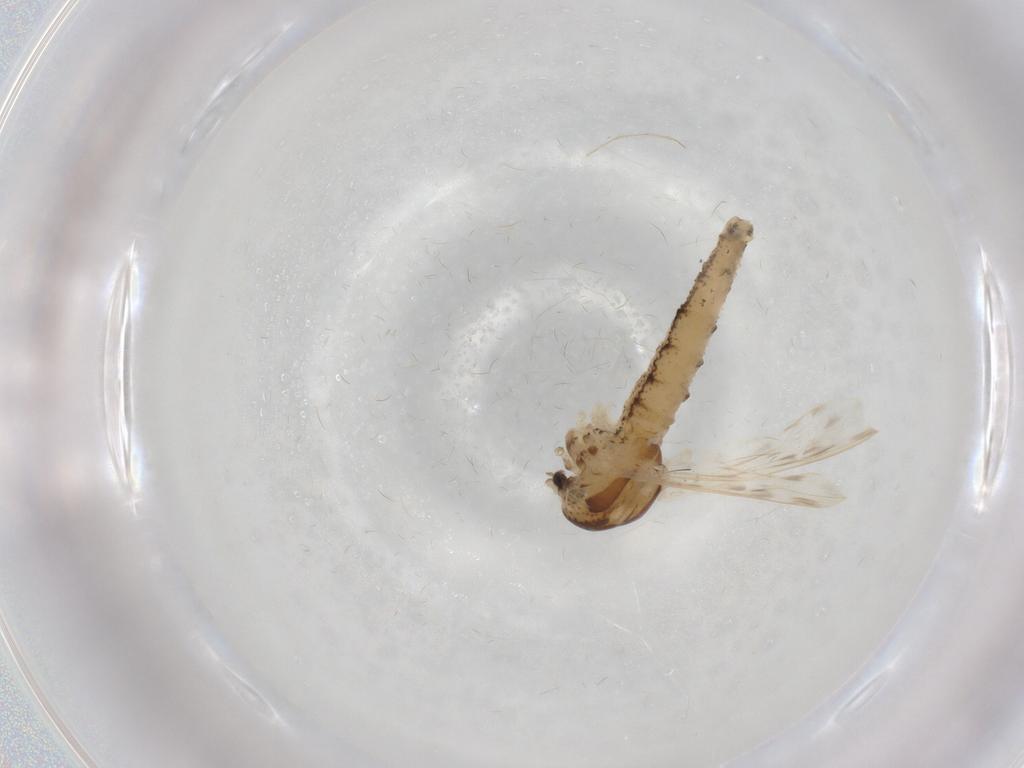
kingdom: Animalia
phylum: Arthropoda
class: Insecta
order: Diptera
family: Chaoboridae
